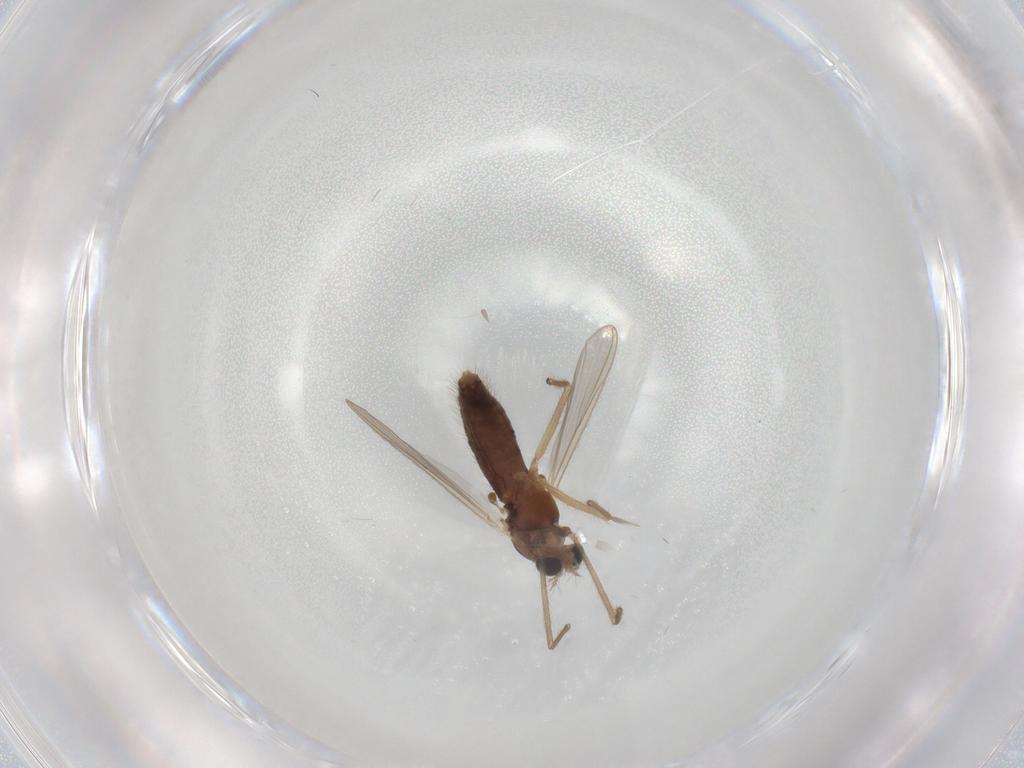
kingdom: Animalia
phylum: Arthropoda
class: Insecta
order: Diptera
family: Chironomidae
